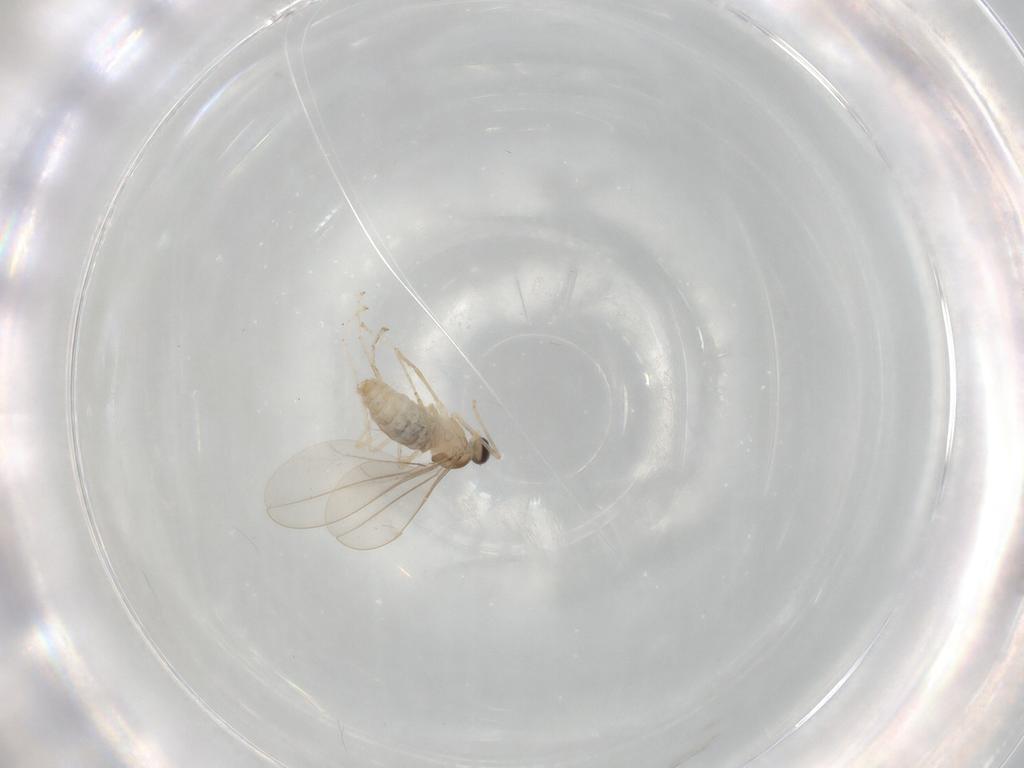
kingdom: Animalia
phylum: Arthropoda
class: Insecta
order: Diptera
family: Cecidomyiidae
